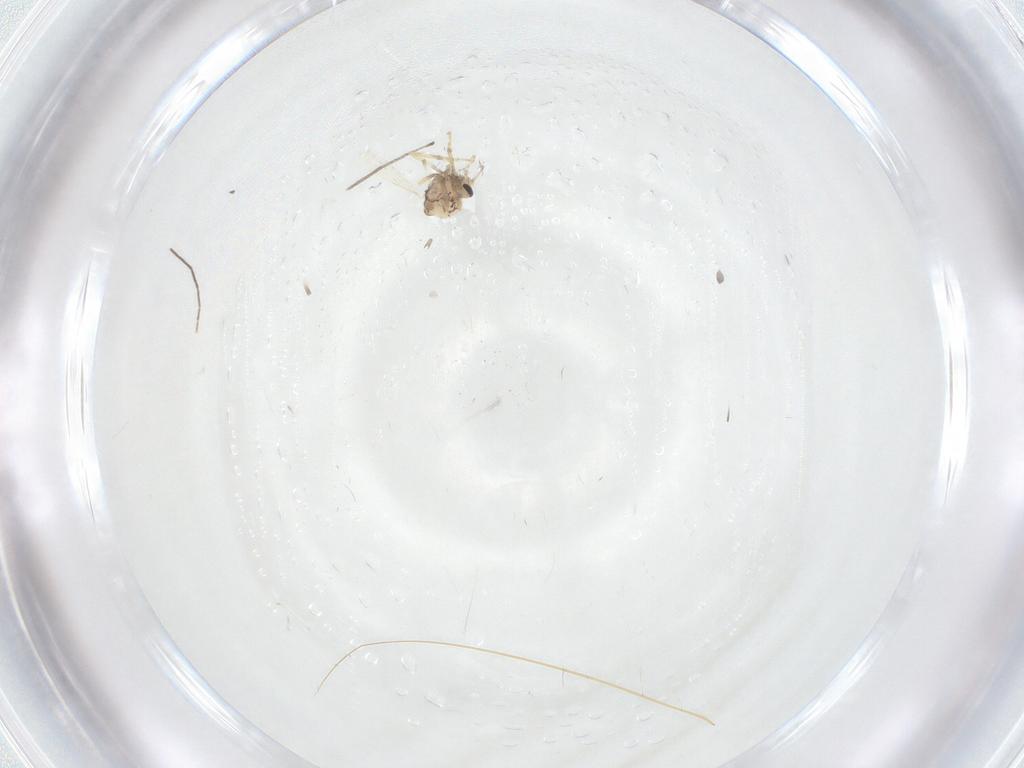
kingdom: Animalia
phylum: Arthropoda
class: Insecta
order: Diptera
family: Ceratopogonidae
